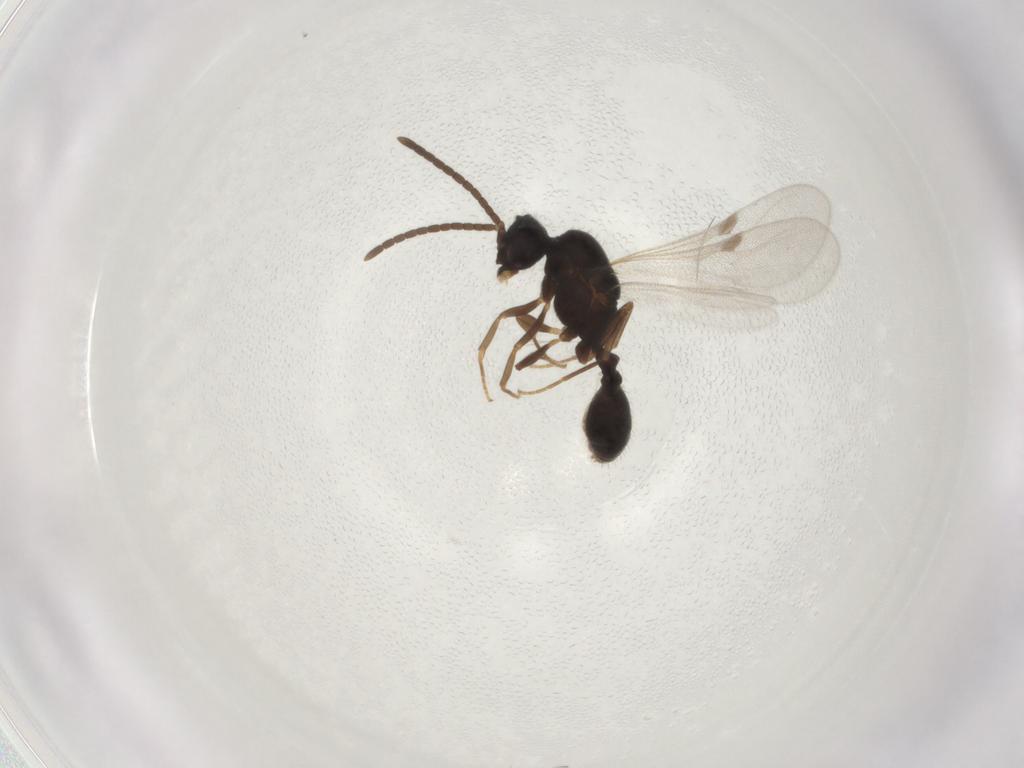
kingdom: Animalia
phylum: Arthropoda
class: Insecta
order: Hymenoptera
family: Formicidae
